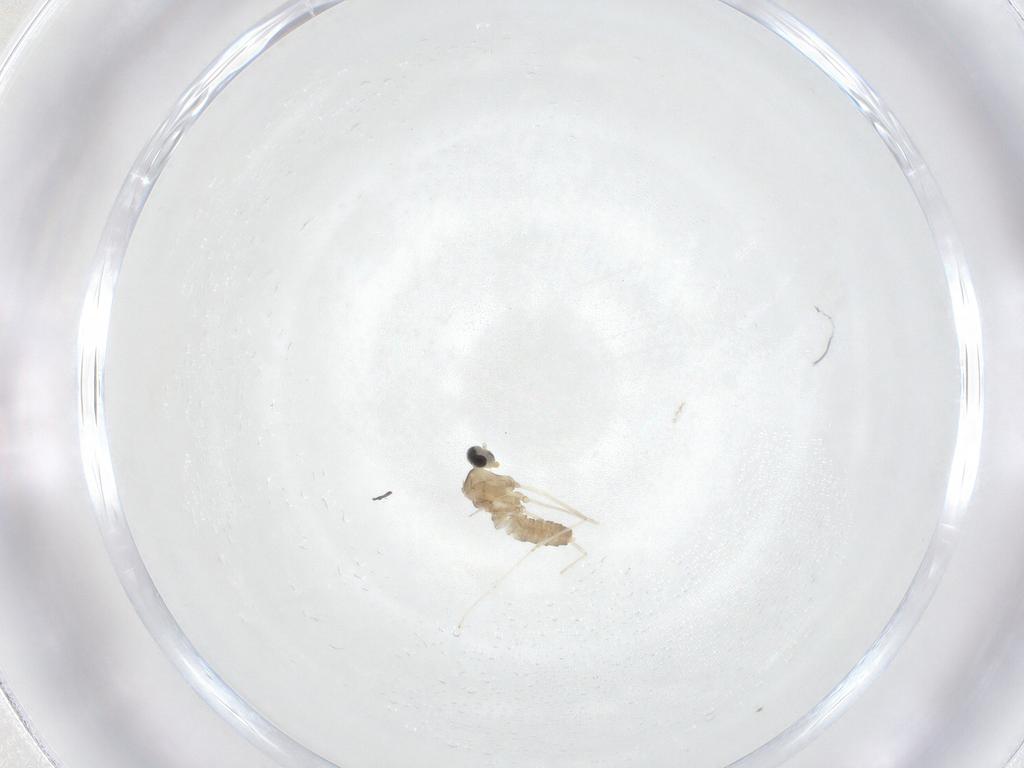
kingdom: Animalia
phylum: Arthropoda
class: Insecta
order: Diptera
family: Cecidomyiidae
